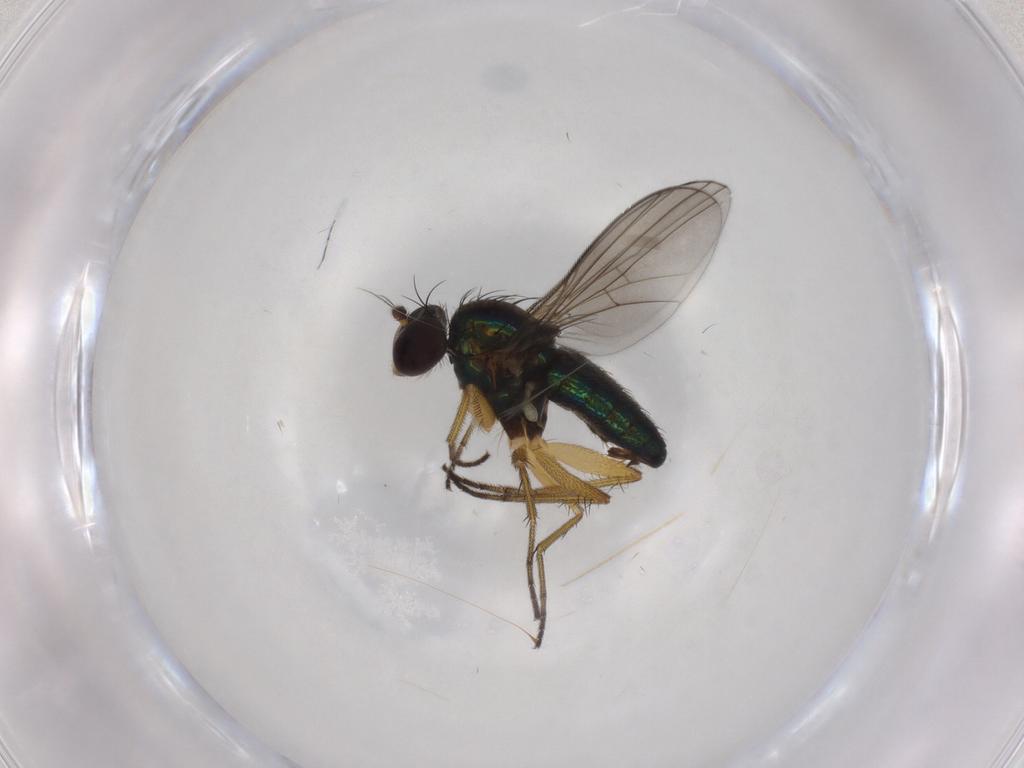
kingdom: Animalia
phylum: Arthropoda
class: Insecta
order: Diptera
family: Dolichopodidae
